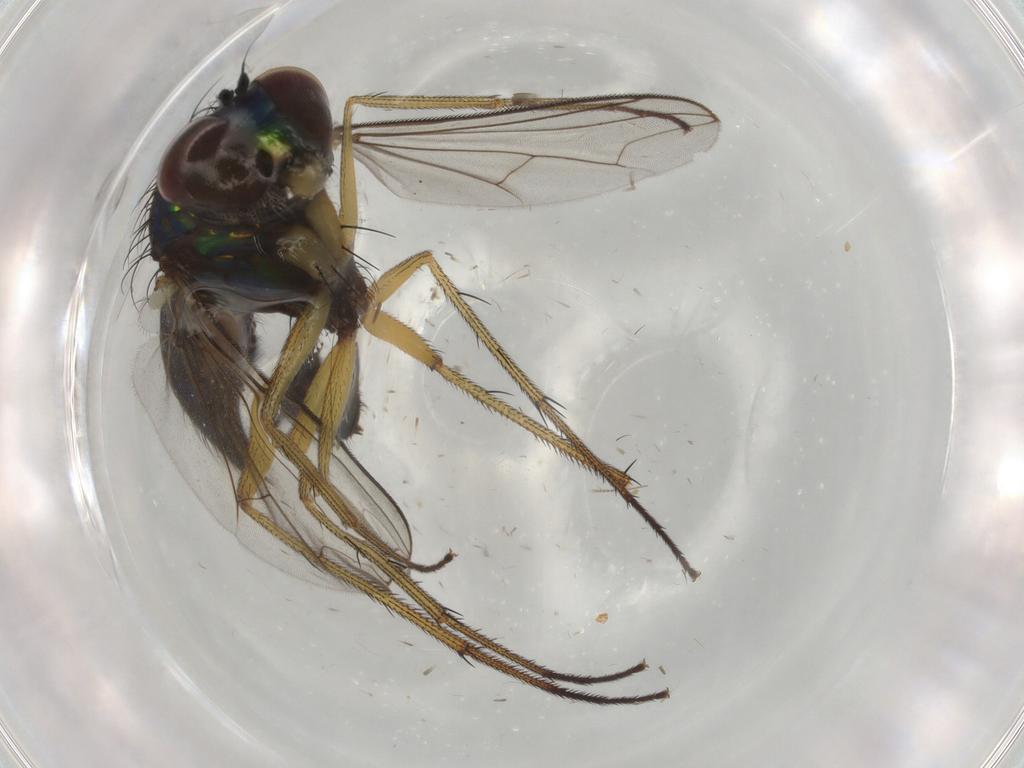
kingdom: Animalia
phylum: Arthropoda
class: Insecta
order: Diptera
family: Dolichopodidae
